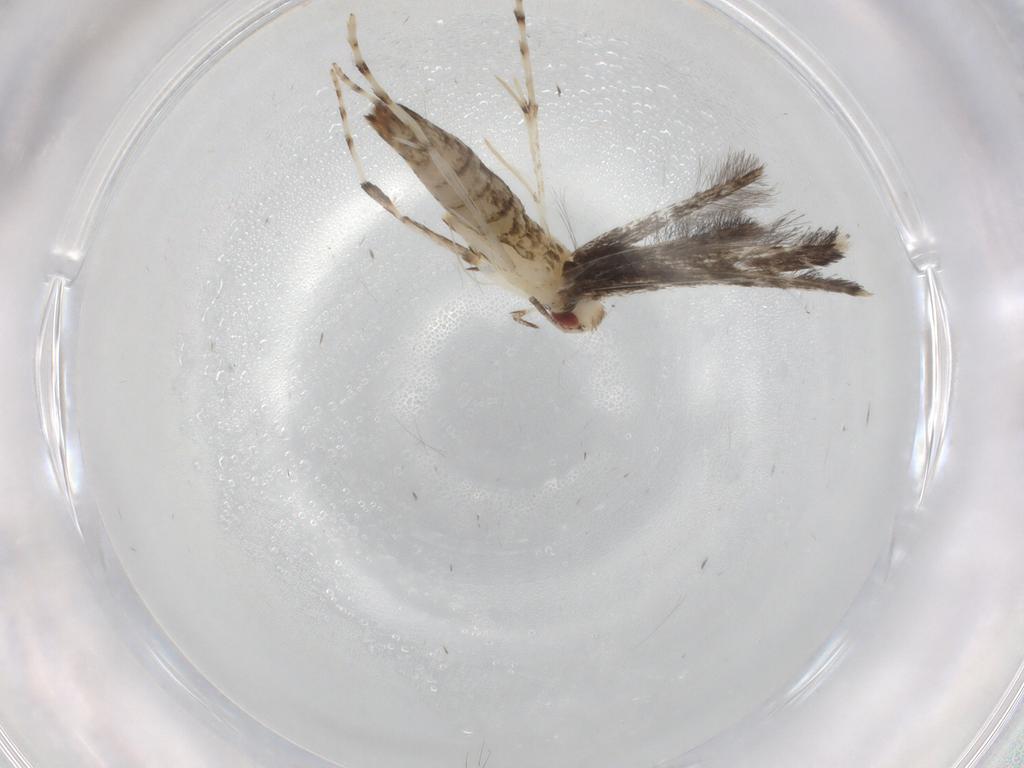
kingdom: Animalia
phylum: Arthropoda
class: Insecta
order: Lepidoptera
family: Gracillariidae
